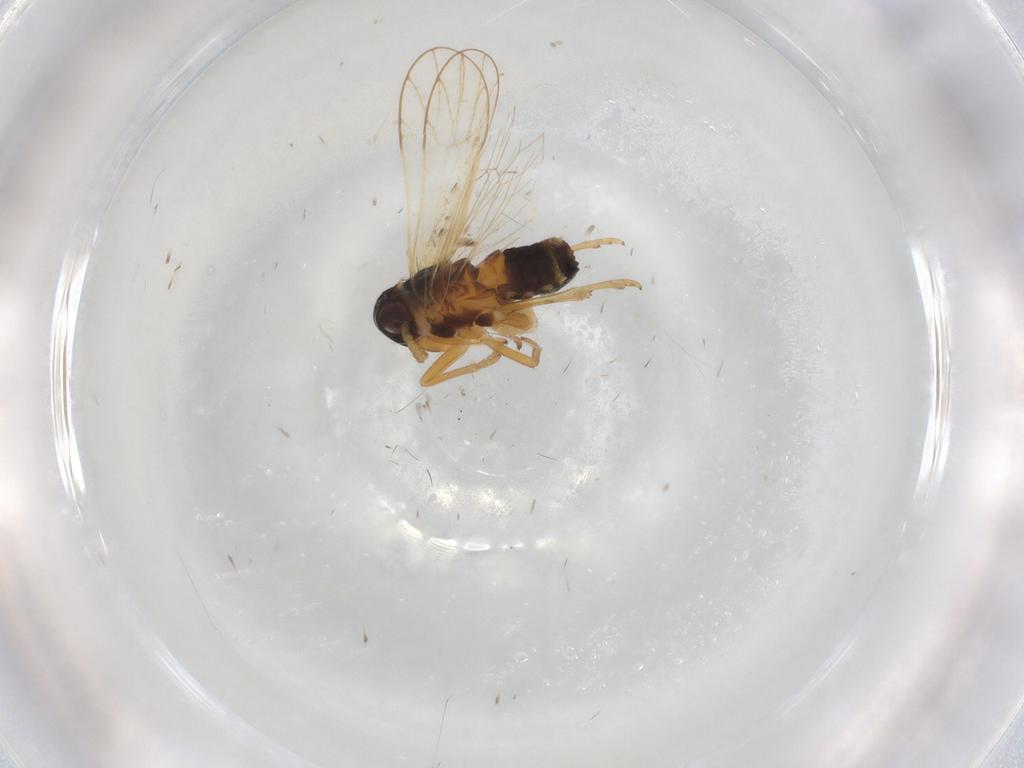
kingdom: Animalia
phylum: Arthropoda
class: Insecta
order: Hemiptera
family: Delphacidae
